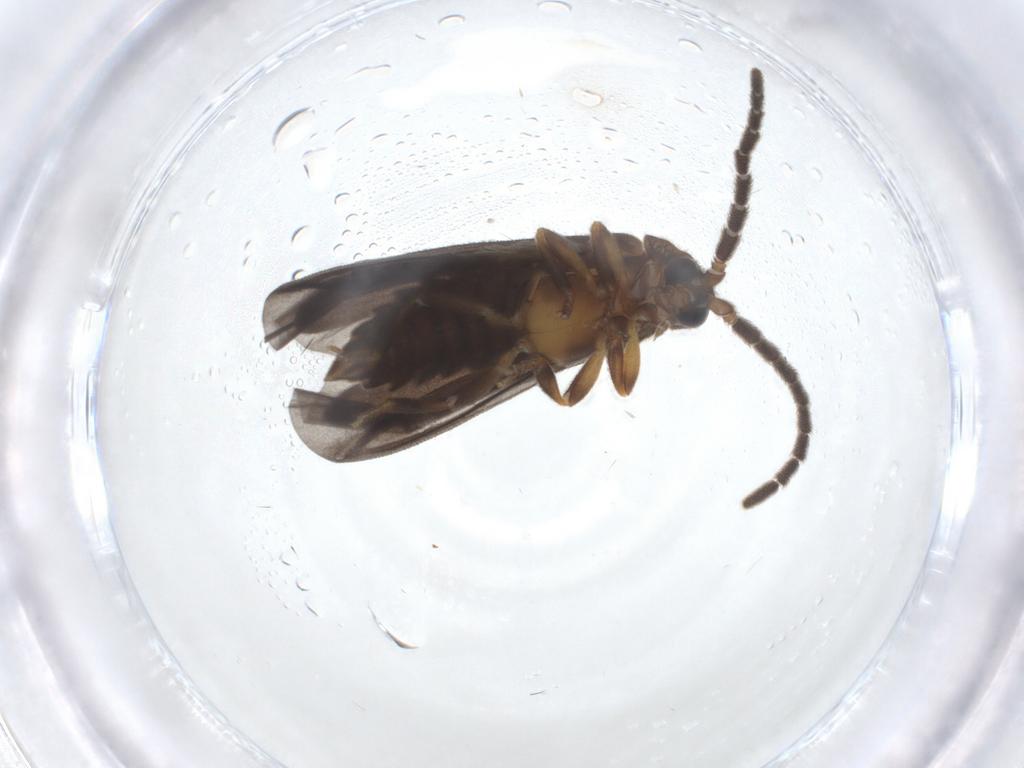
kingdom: Animalia
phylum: Arthropoda
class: Insecta
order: Coleoptera
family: Lycidae
